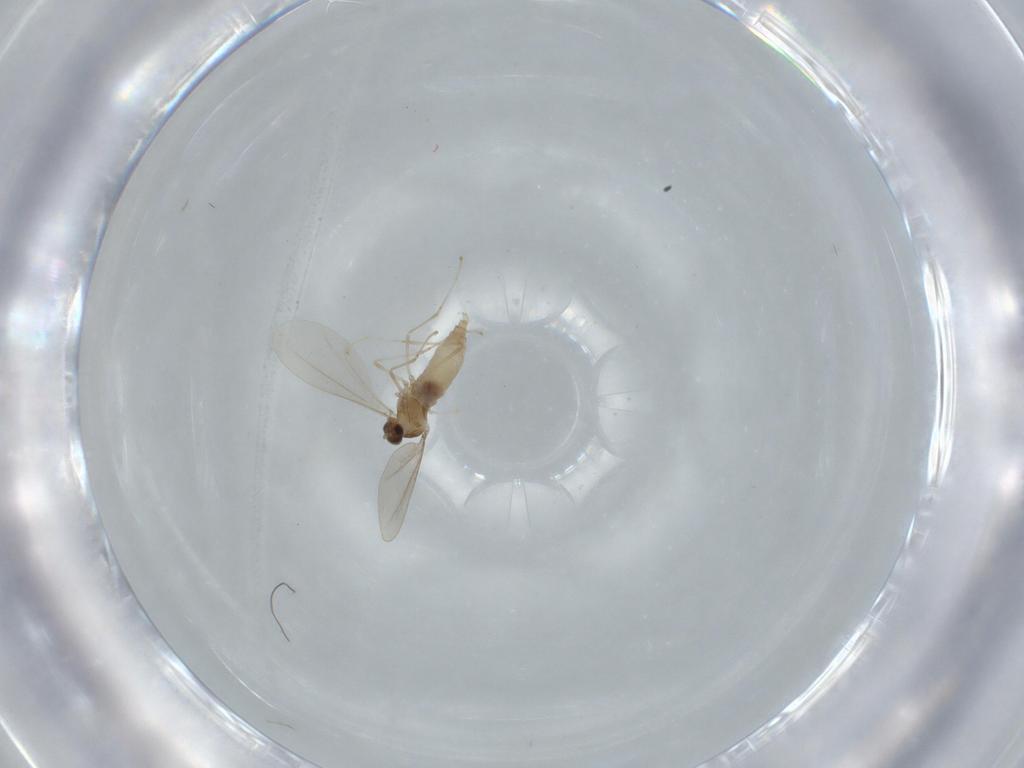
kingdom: Animalia
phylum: Arthropoda
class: Insecta
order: Diptera
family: Cecidomyiidae
